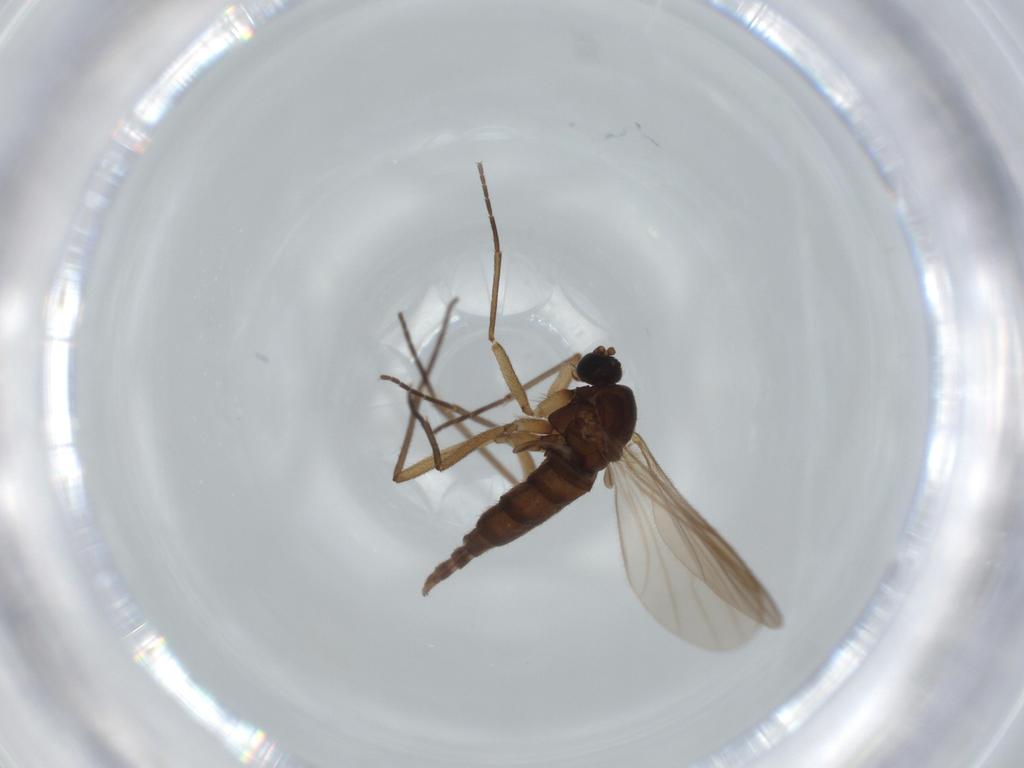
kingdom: Animalia
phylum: Arthropoda
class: Insecta
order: Diptera
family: Sciaridae
